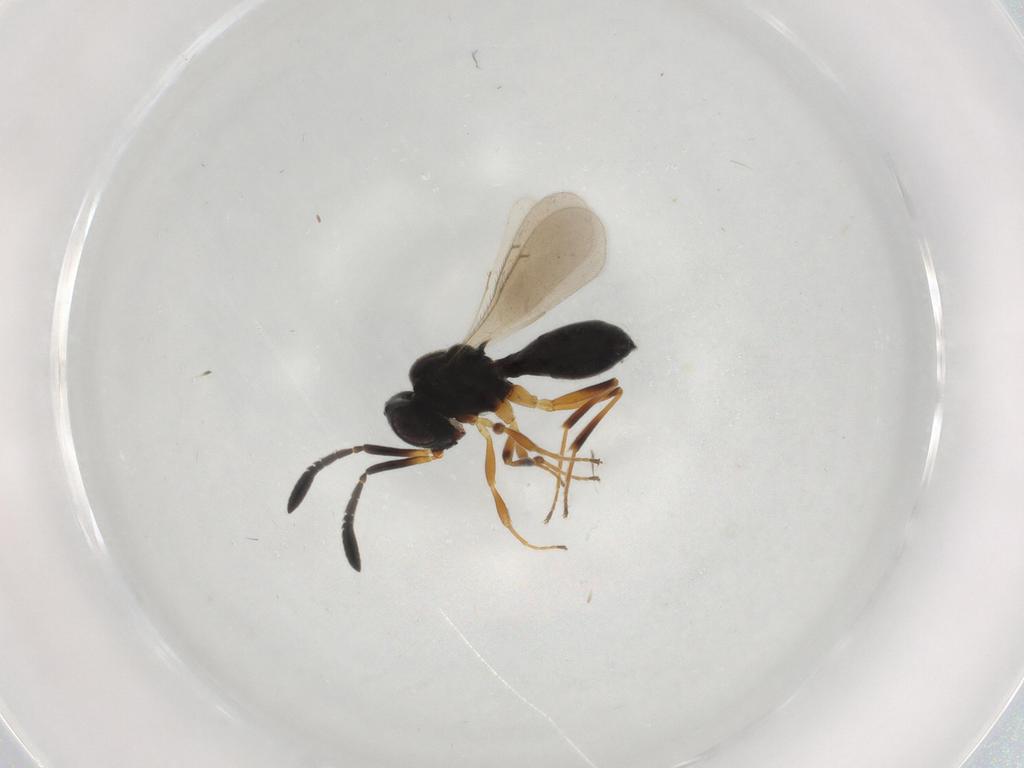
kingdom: Animalia
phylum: Arthropoda
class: Insecta
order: Hymenoptera
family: Scelionidae
